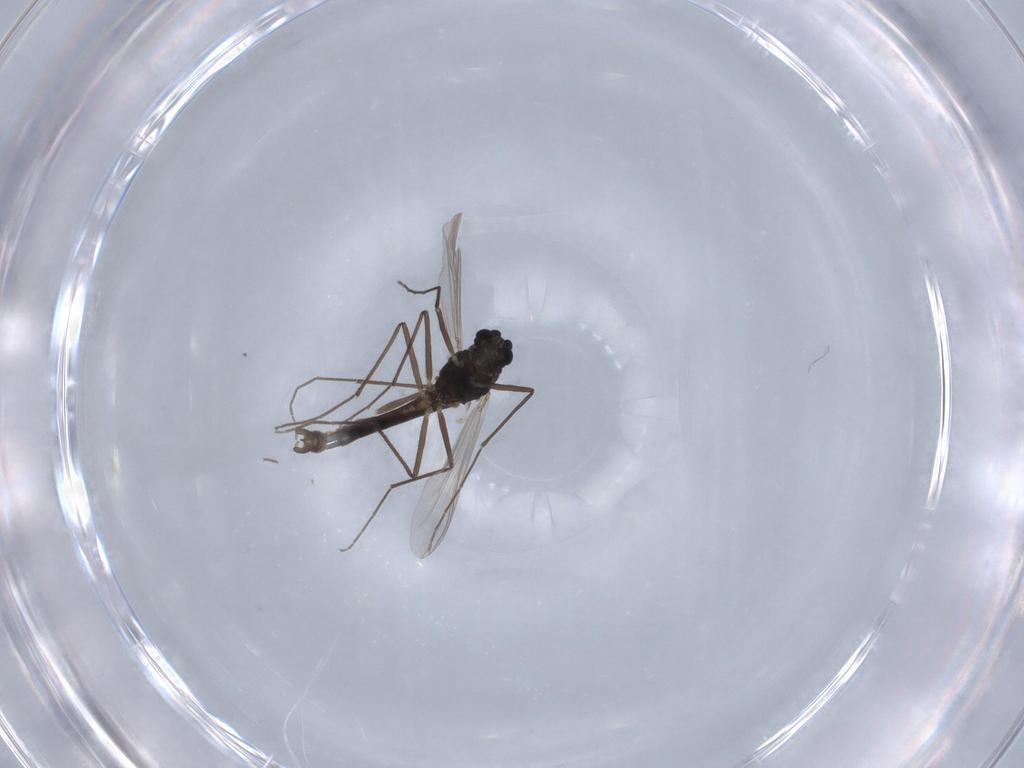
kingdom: Animalia
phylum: Arthropoda
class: Insecta
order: Diptera
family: Chironomidae
